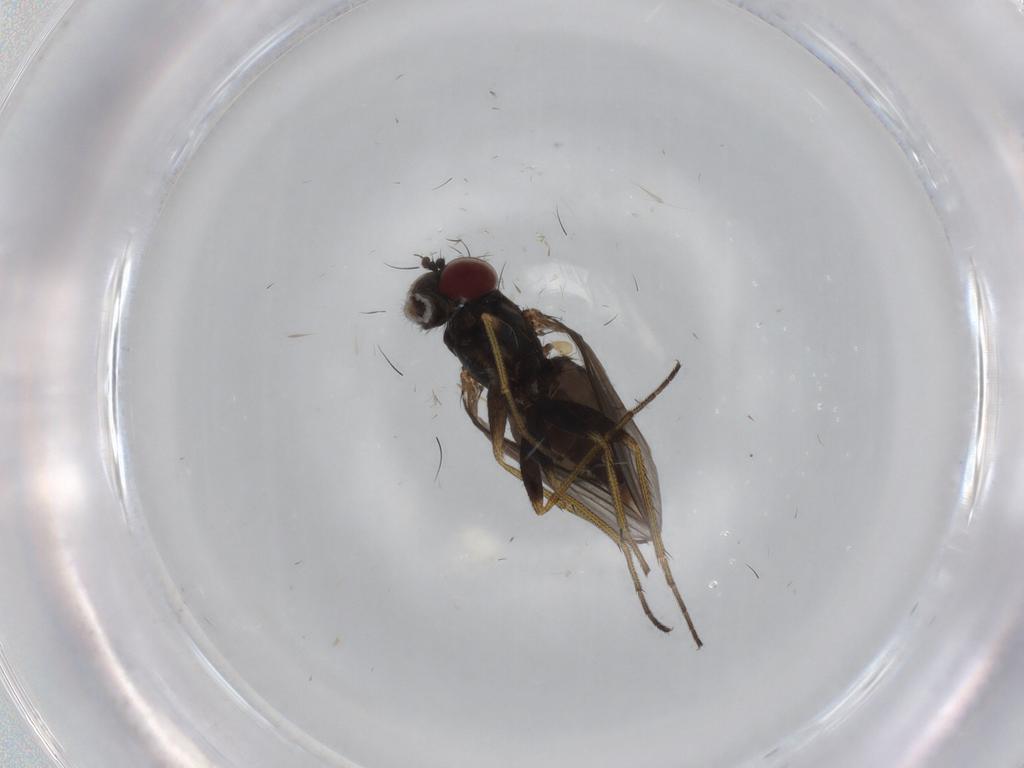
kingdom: Animalia
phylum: Arthropoda
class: Insecta
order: Diptera
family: Dolichopodidae
